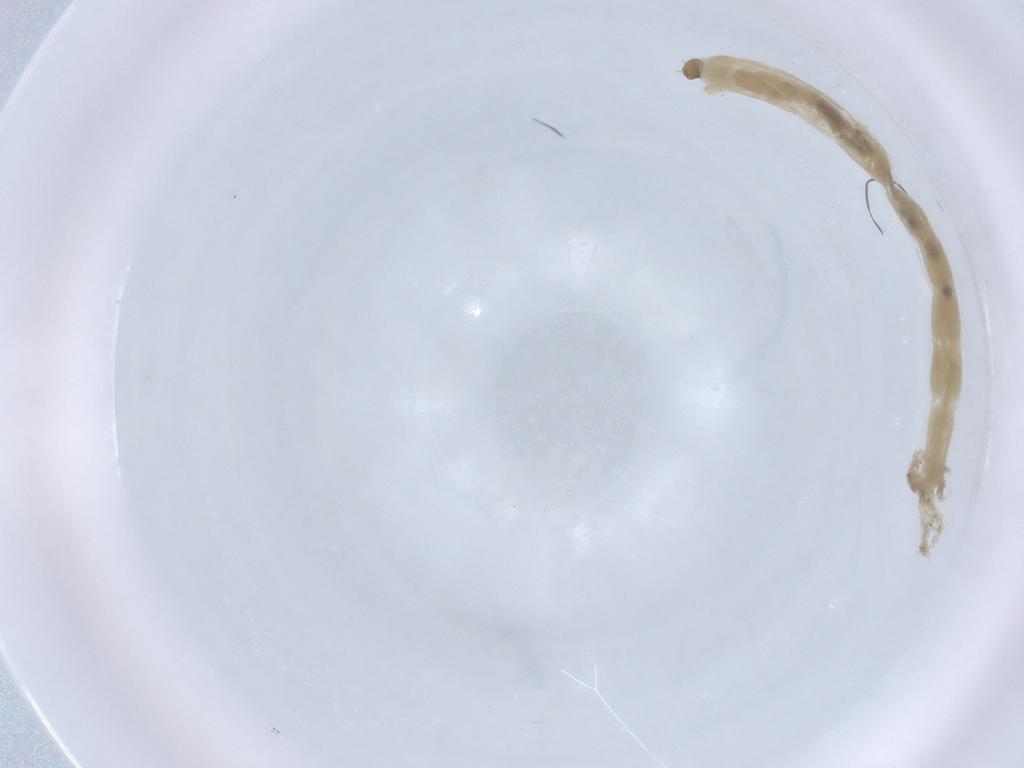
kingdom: Animalia
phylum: Arthropoda
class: Insecta
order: Diptera
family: Chironomidae
